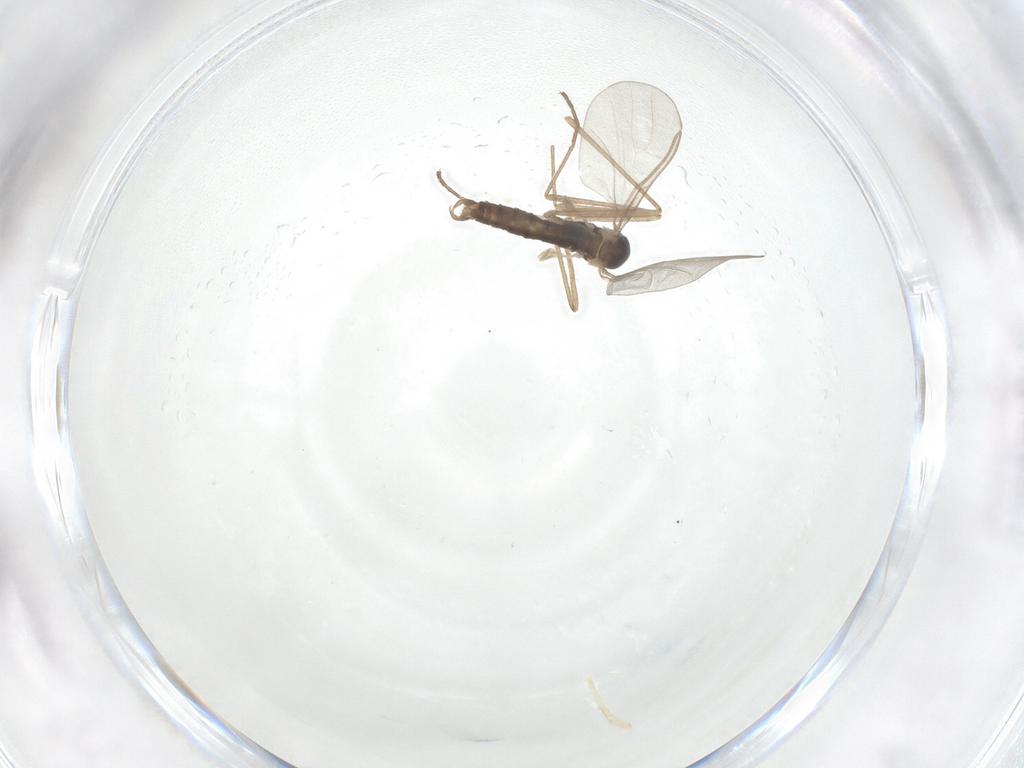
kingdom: Animalia
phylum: Arthropoda
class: Insecta
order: Diptera
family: Cecidomyiidae
